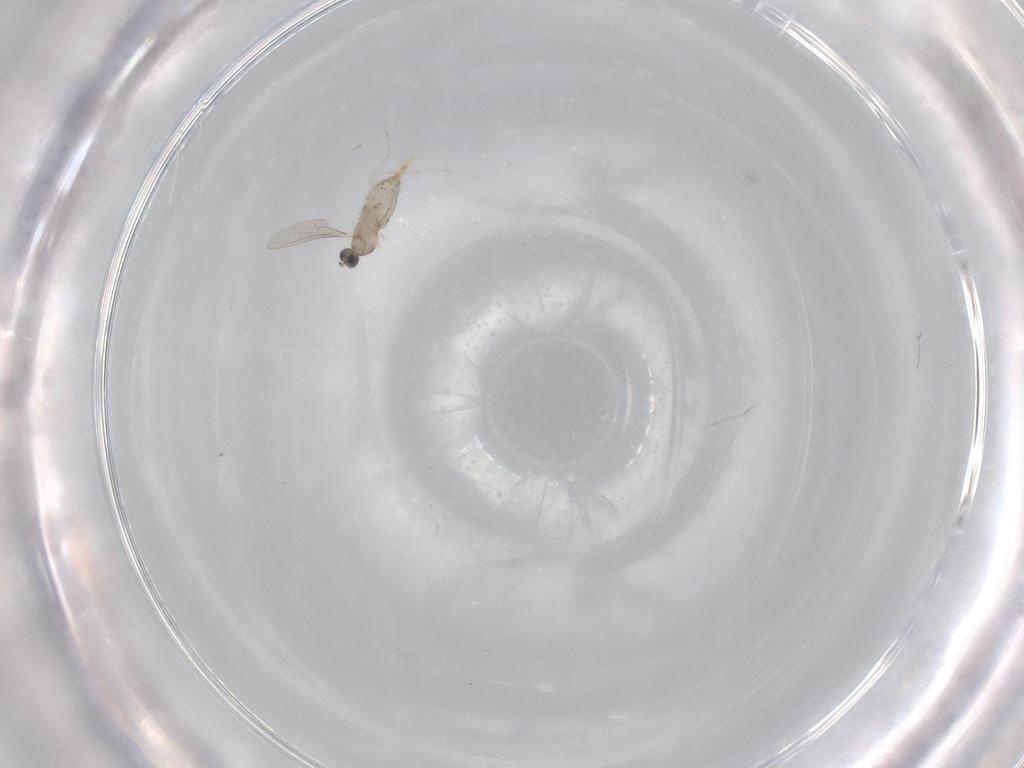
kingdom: Animalia
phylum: Arthropoda
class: Insecta
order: Diptera
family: Cecidomyiidae
